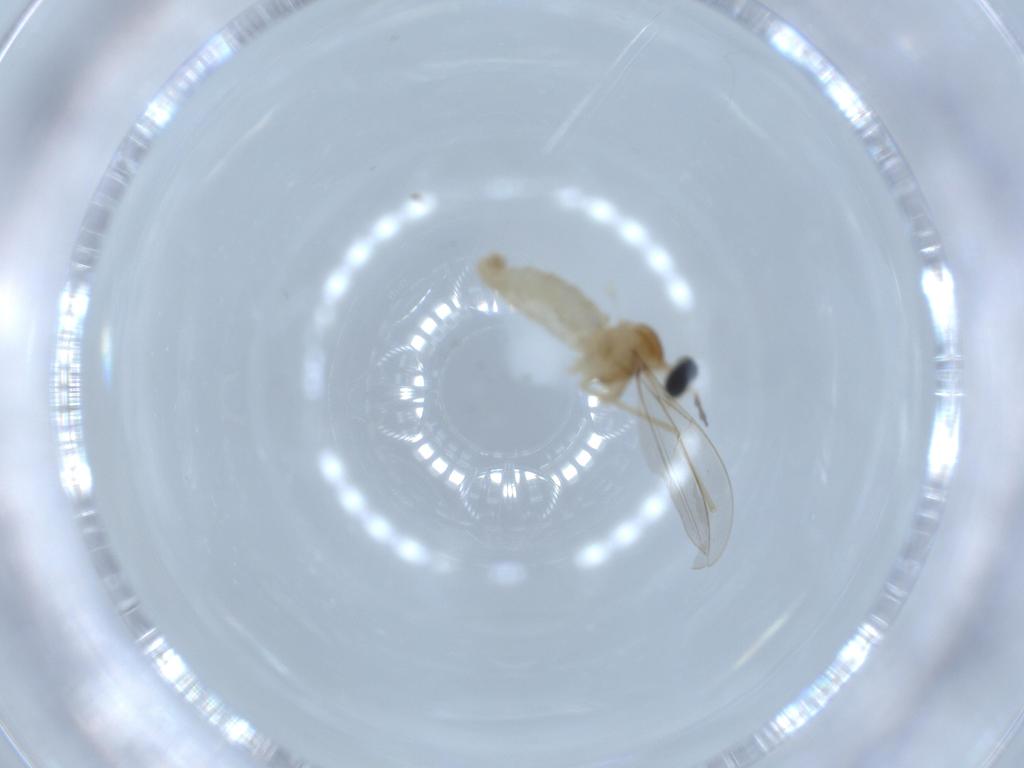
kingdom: Animalia
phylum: Arthropoda
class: Insecta
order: Diptera
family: Cecidomyiidae
